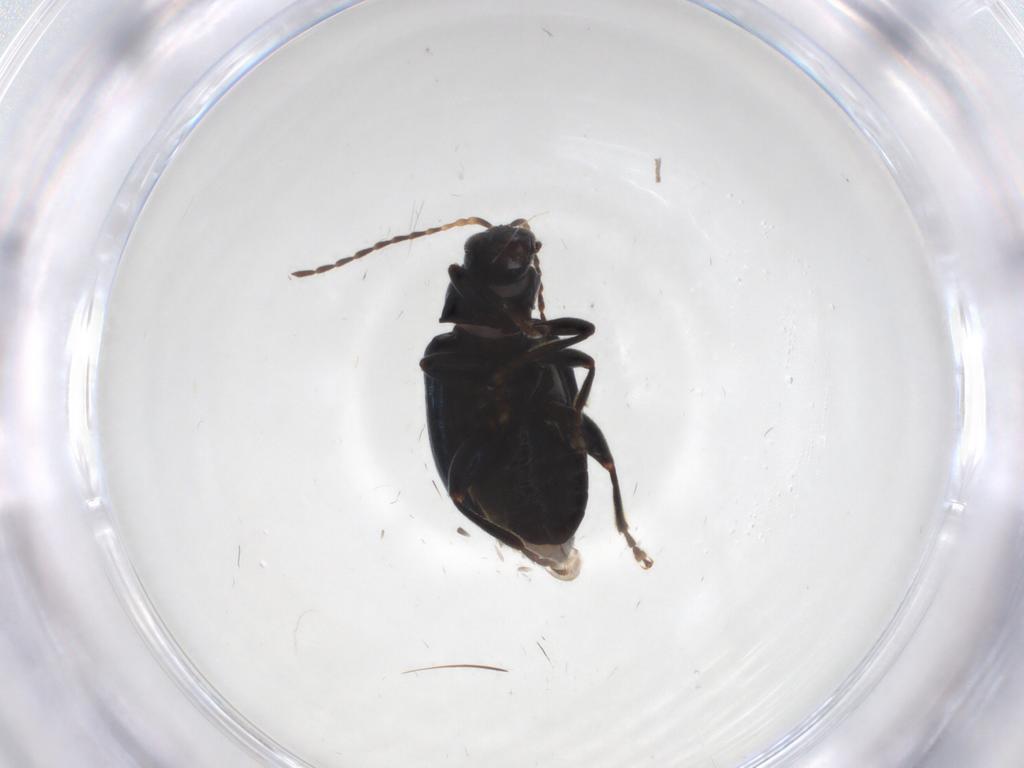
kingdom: Animalia
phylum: Arthropoda
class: Insecta
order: Coleoptera
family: Chrysomelidae
